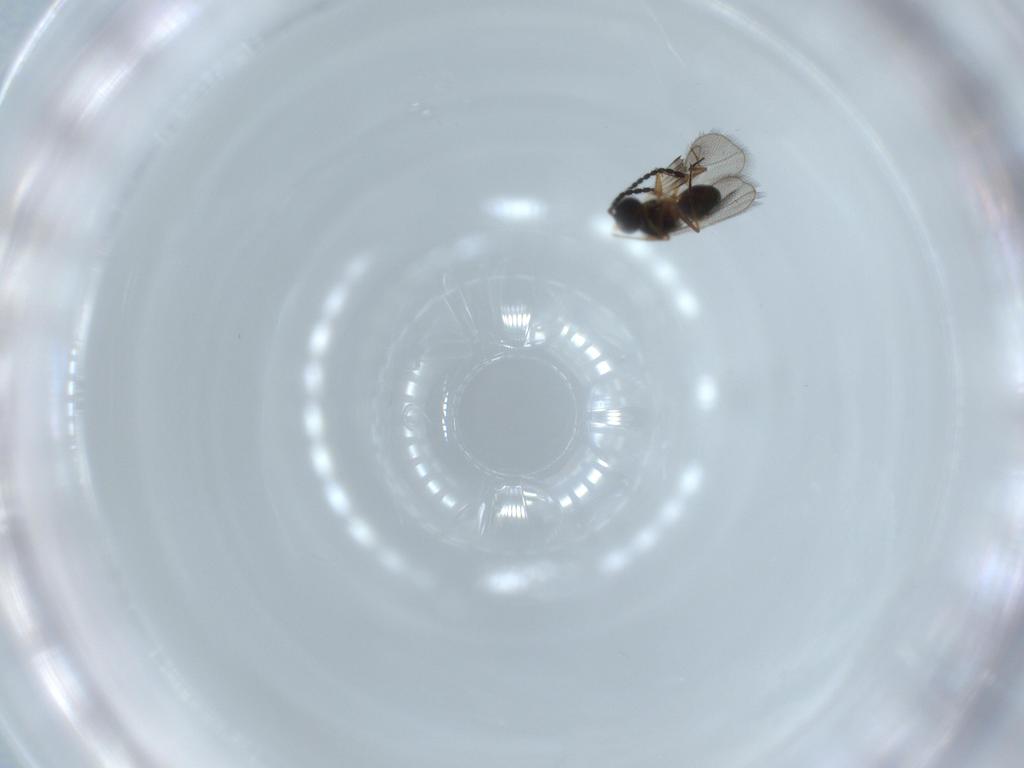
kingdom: Animalia
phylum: Arthropoda
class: Insecta
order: Hymenoptera
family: Figitidae
